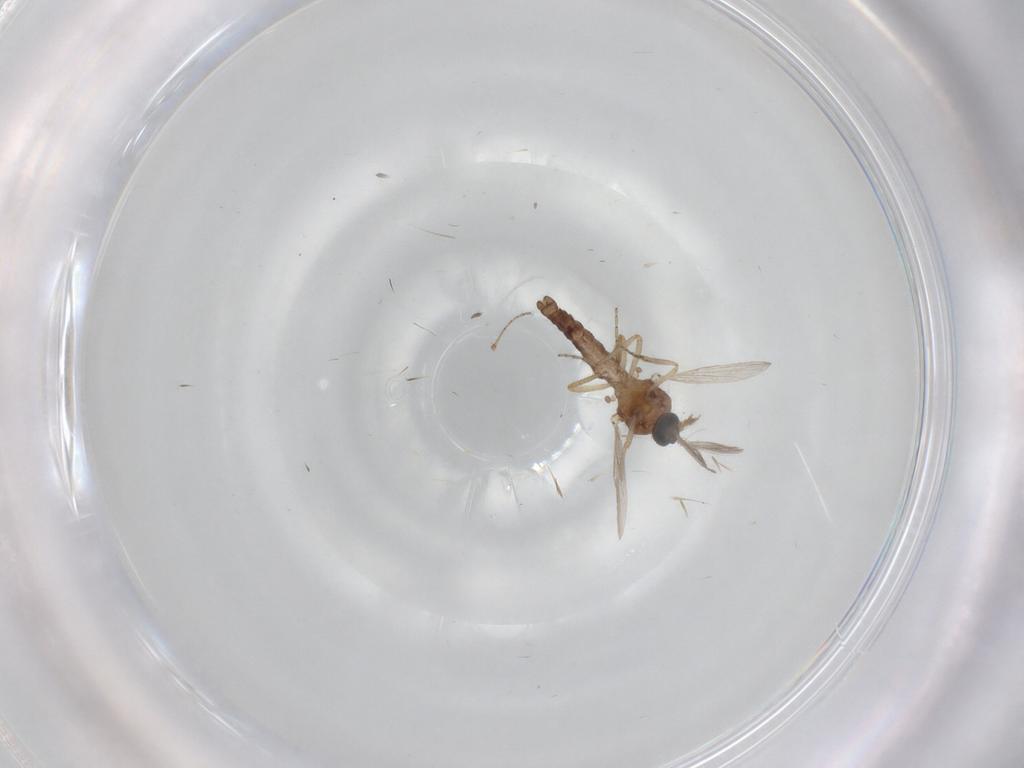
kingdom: Animalia
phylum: Arthropoda
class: Insecta
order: Diptera
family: Ceratopogonidae
